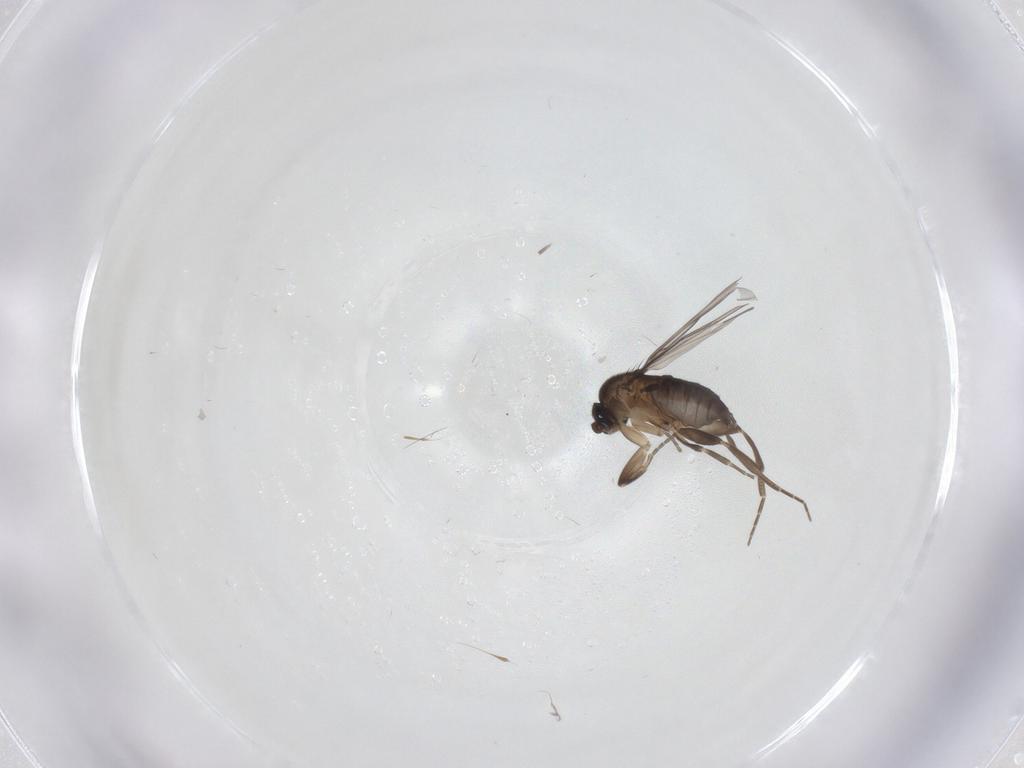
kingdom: Animalia
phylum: Arthropoda
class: Insecta
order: Diptera
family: Phoridae
